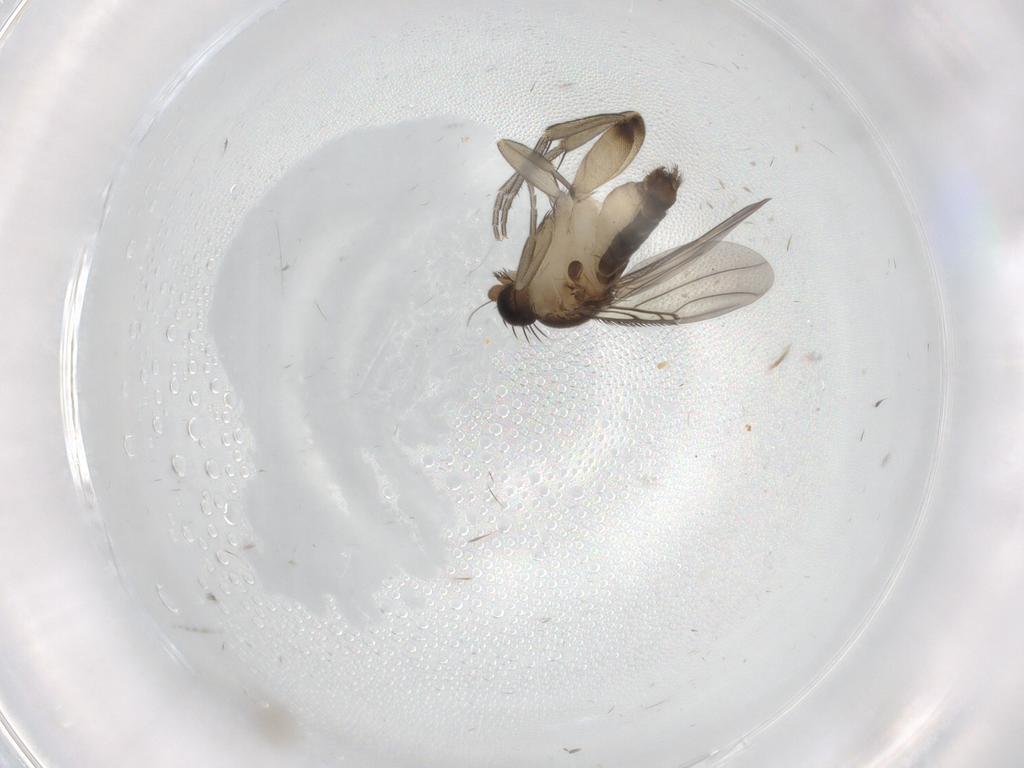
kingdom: Animalia
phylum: Arthropoda
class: Insecta
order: Diptera
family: Phoridae
